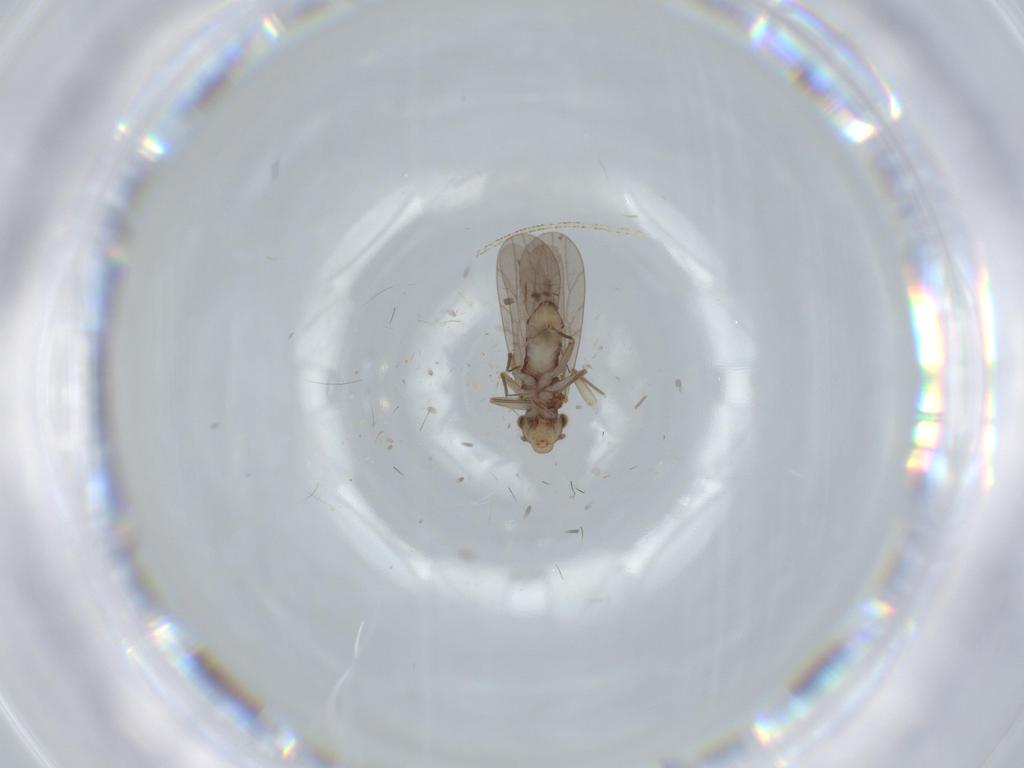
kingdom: Animalia
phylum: Arthropoda
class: Insecta
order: Psocodea
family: Lepidopsocidae
